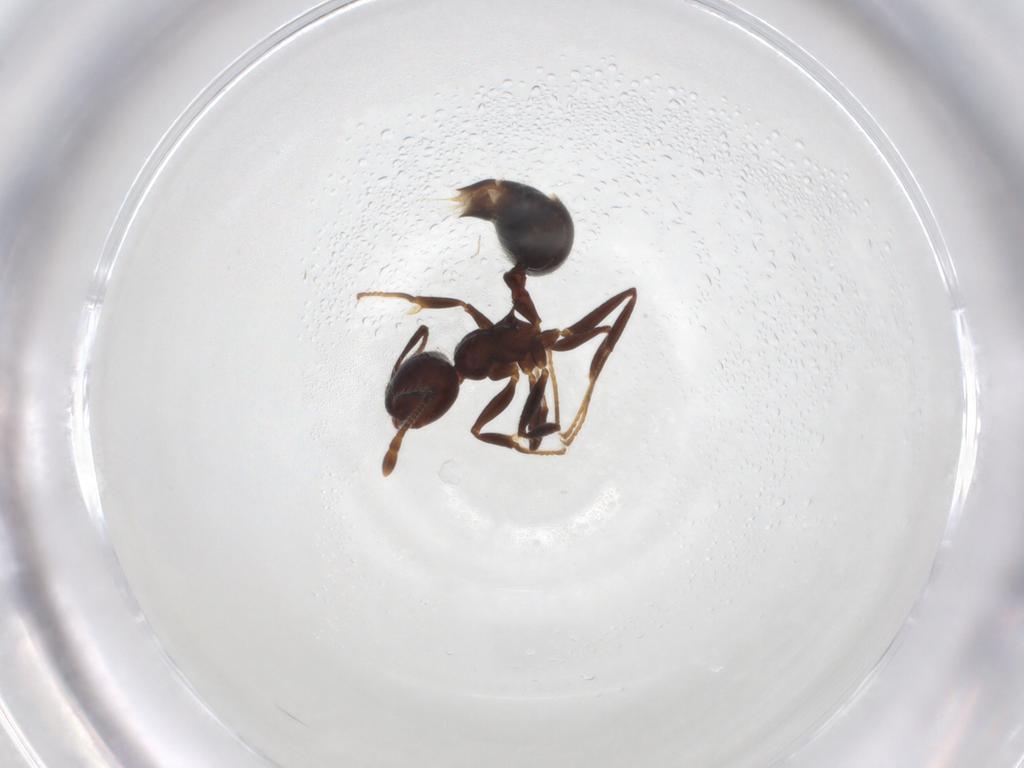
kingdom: Animalia
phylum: Arthropoda
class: Insecta
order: Hymenoptera
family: Formicidae
